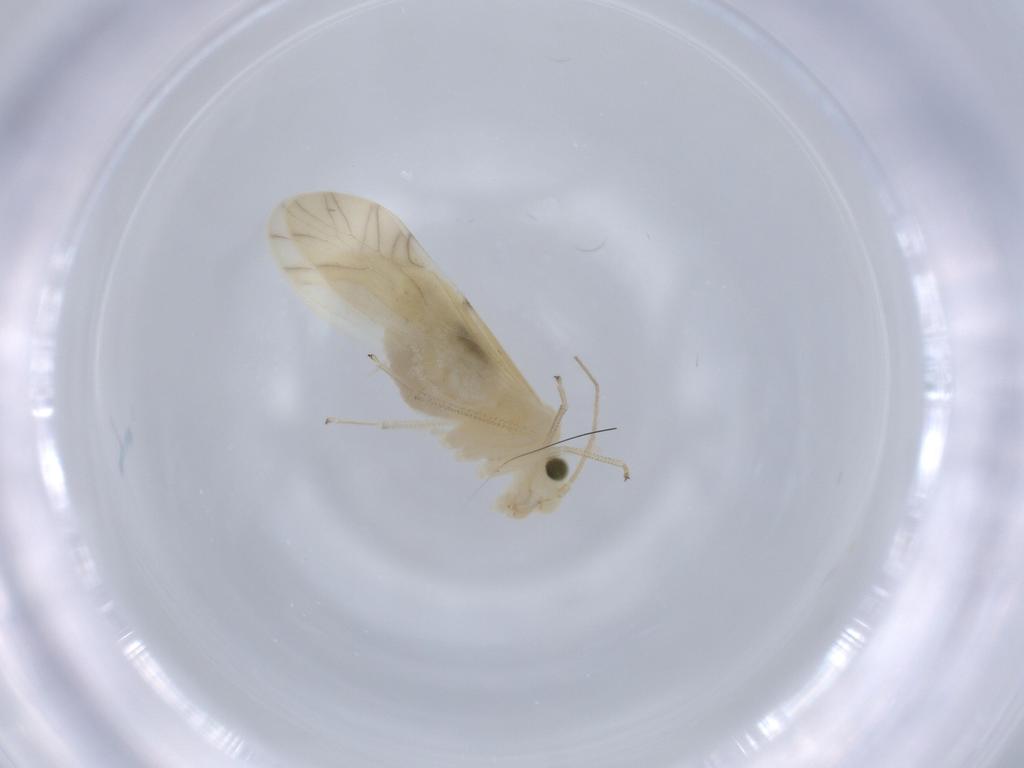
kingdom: Animalia
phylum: Arthropoda
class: Insecta
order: Psocodea
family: Caeciliusidae
